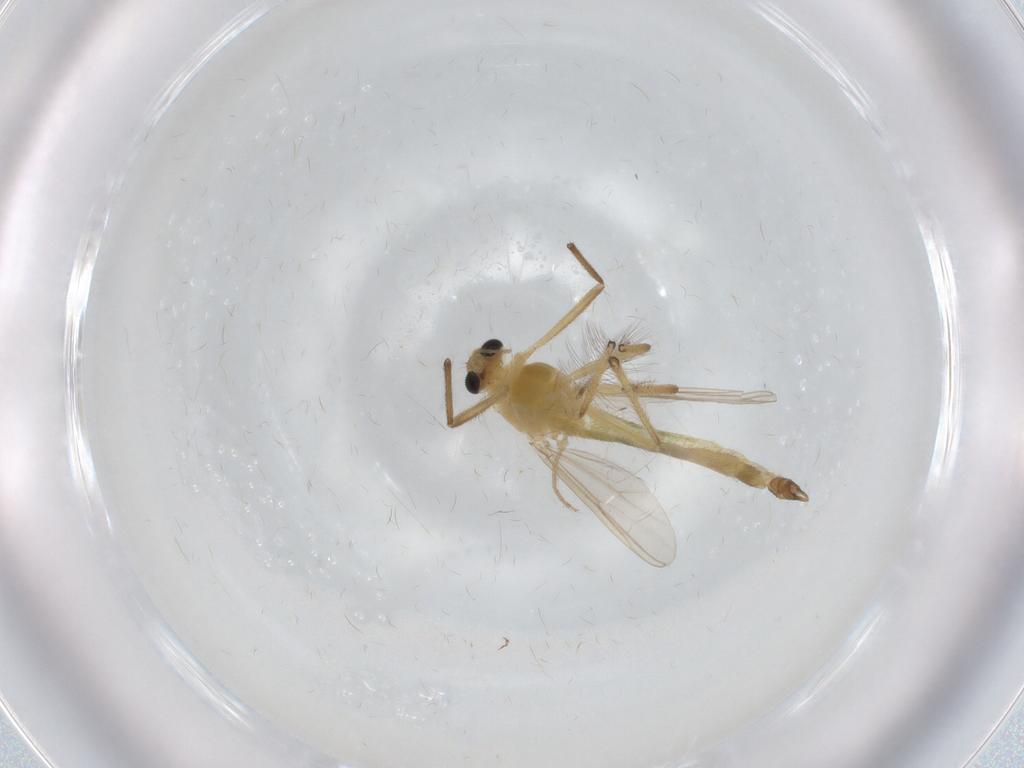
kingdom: Animalia
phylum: Arthropoda
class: Insecta
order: Diptera
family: Chironomidae
